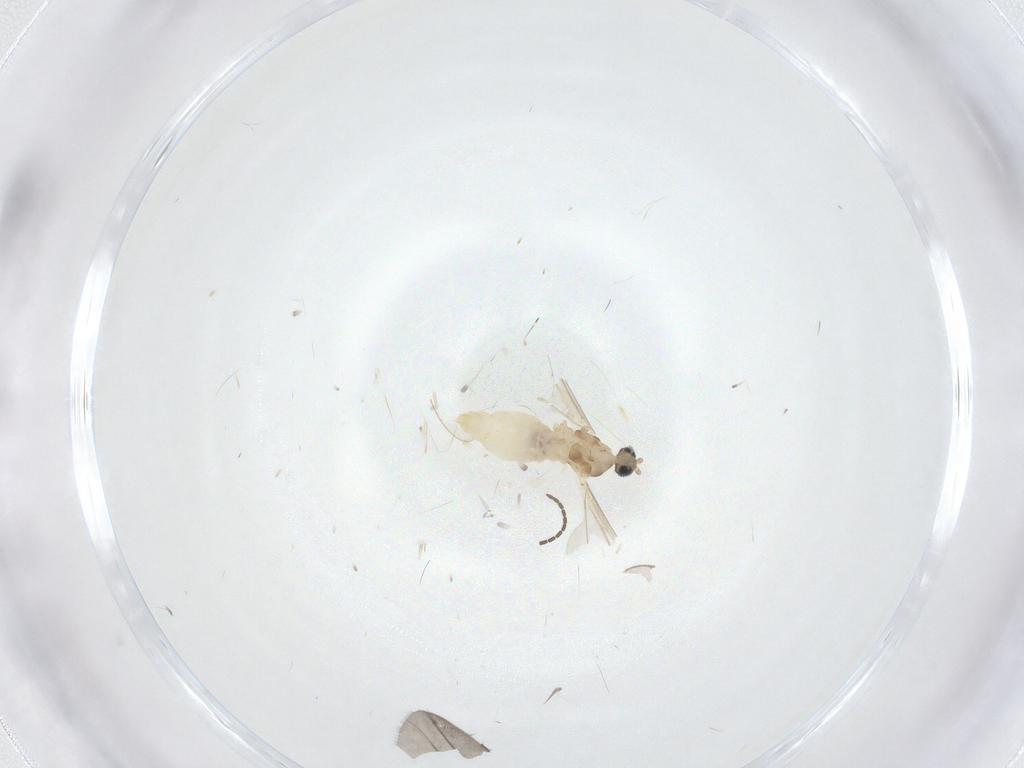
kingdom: Animalia
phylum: Arthropoda
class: Insecta
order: Diptera
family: Cecidomyiidae
